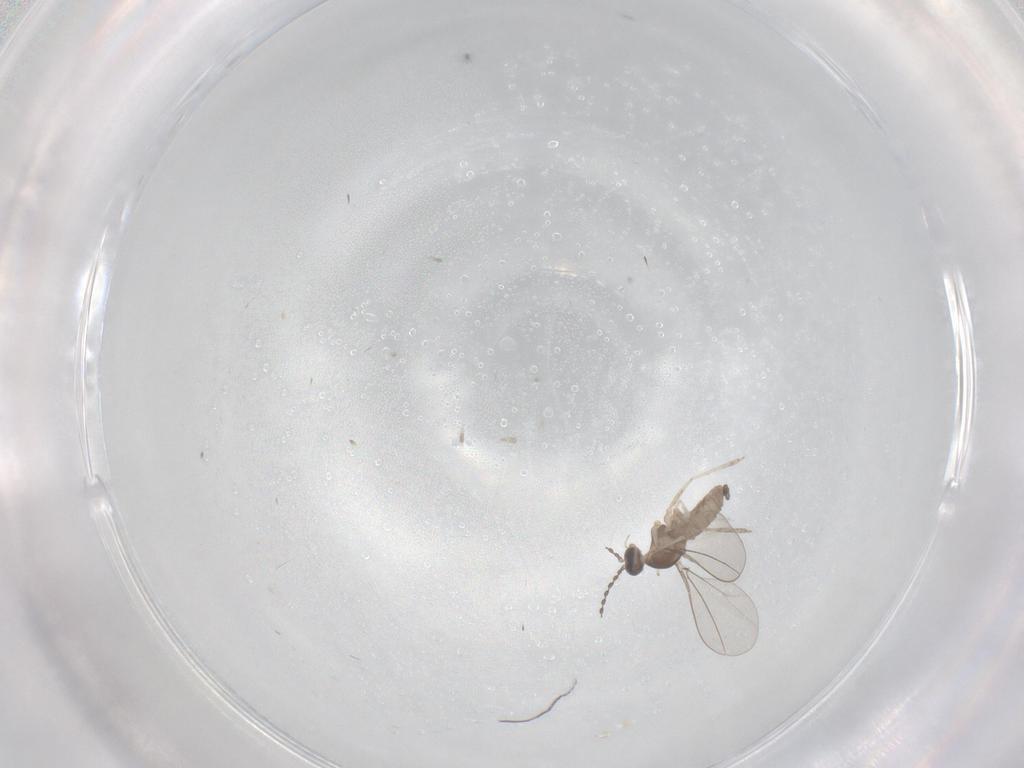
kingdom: Animalia
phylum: Arthropoda
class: Insecta
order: Diptera
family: Cecidomyiidae
